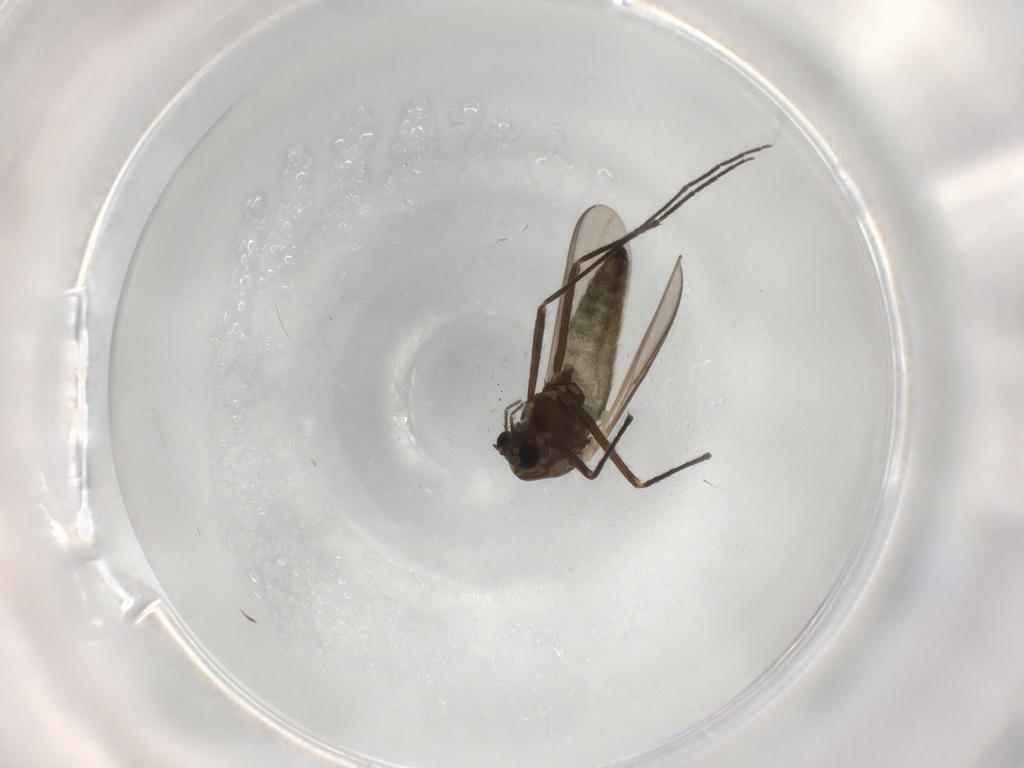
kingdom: Animalia
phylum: Arthropoda
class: Insecta
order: Diptera
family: Chironomidae
